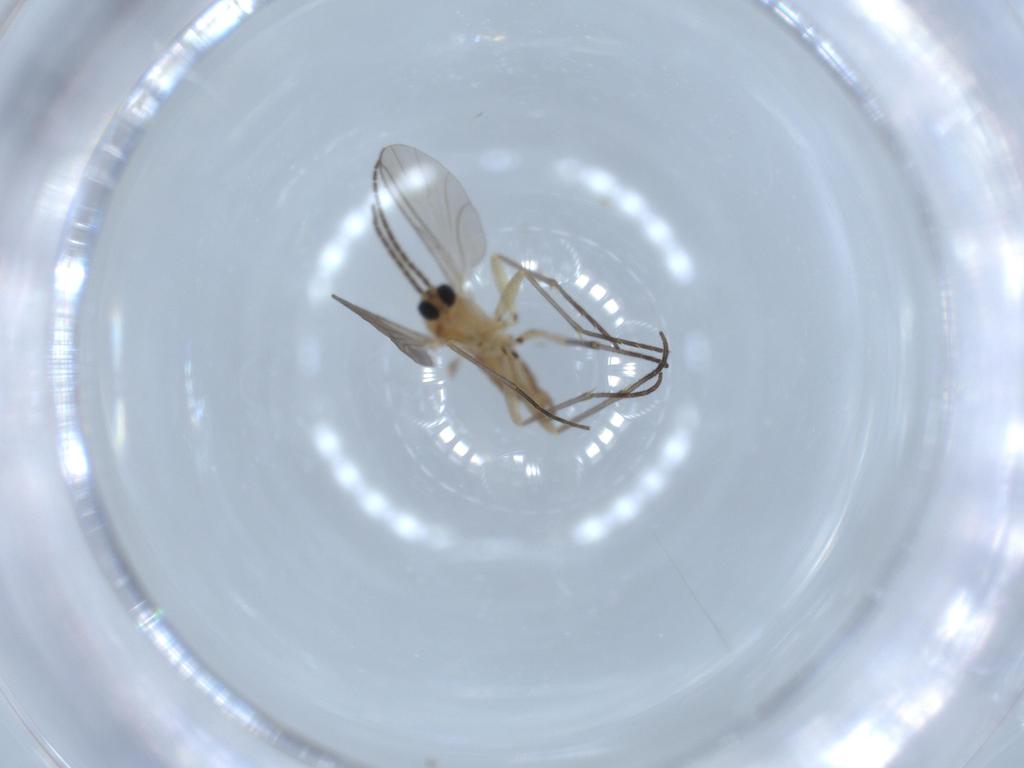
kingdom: Animalia
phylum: Arthropoda
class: Insecta
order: Diptera
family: Sciaridae
